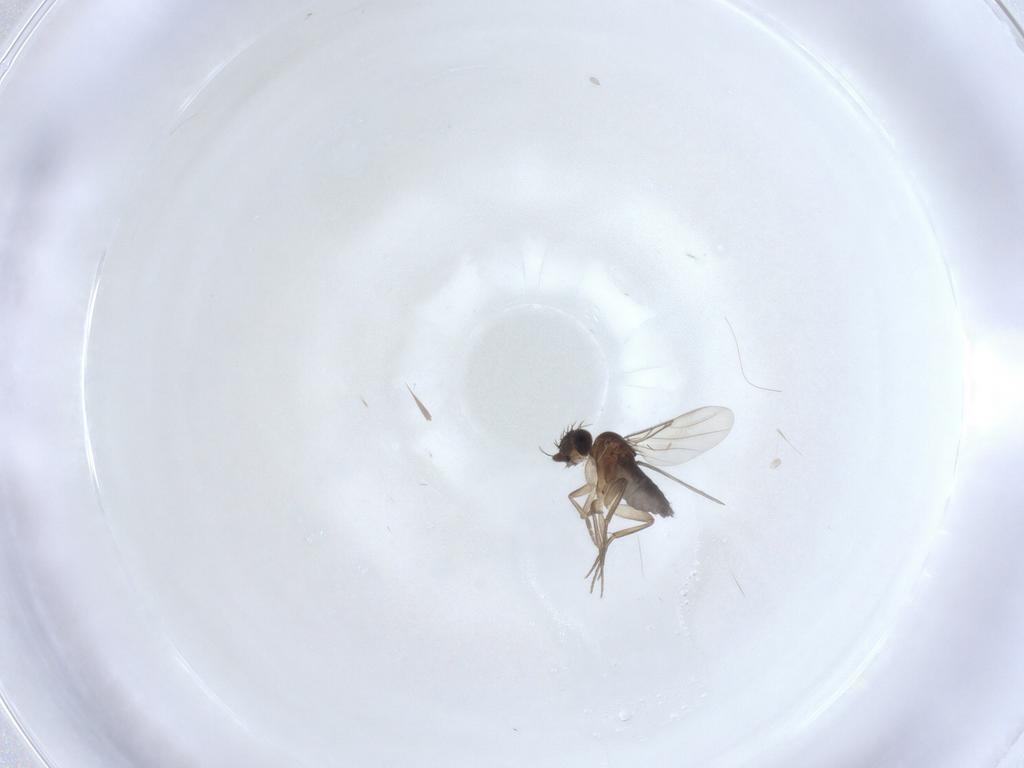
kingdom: Animalia
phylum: Arthropoda
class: Insecta
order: Diptera
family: Phoridae
